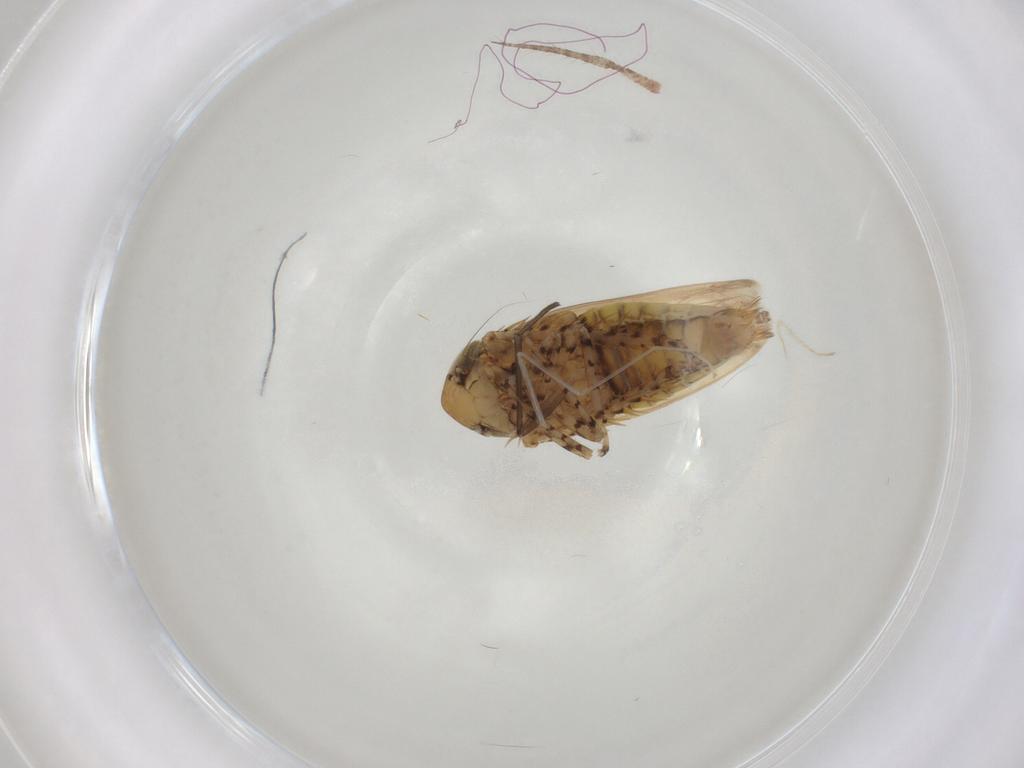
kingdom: Animalia
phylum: Arthropoda
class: Insecta
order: Hemiptera
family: Cicadellidae
